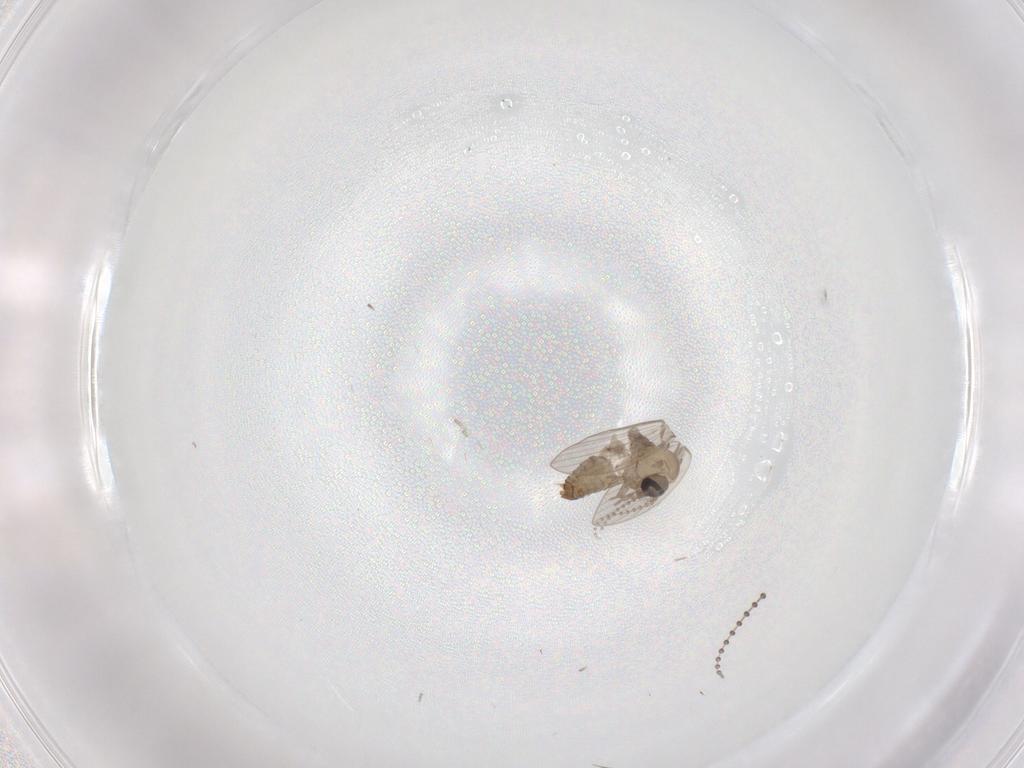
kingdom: Animalia
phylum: Arthropoda
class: Insecta
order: Diptera
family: Psychodidae
